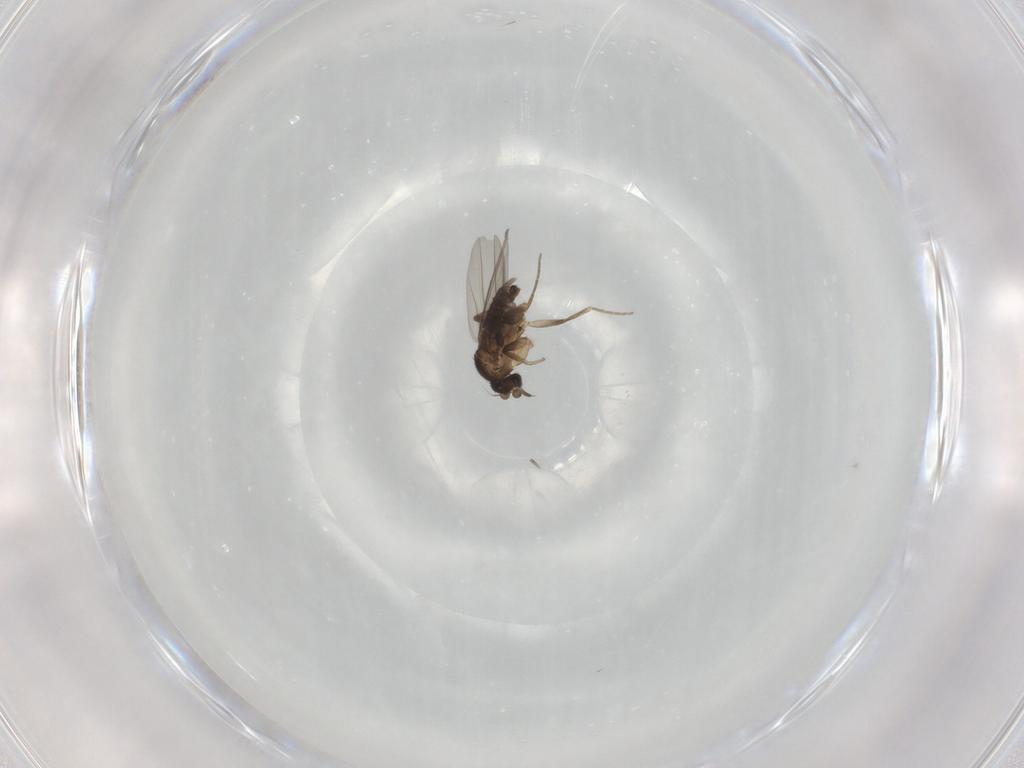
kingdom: Animalia
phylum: Arthropoda
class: Insecta
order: Diptera
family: Phoridae
